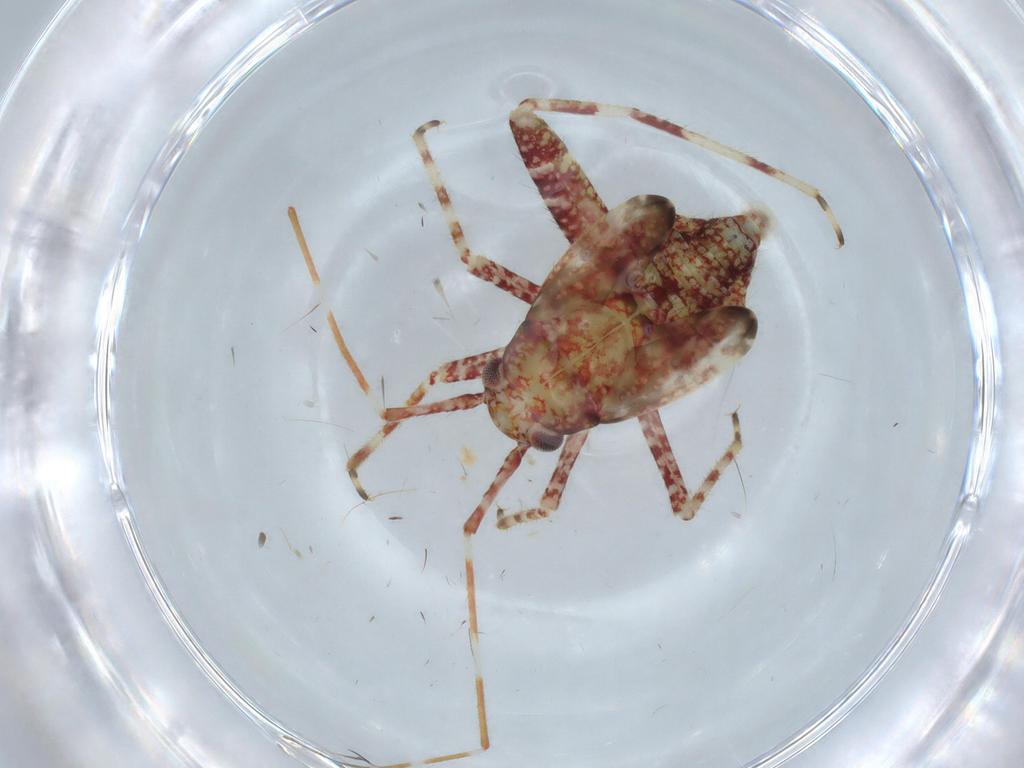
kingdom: Animalia
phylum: Arthropoda
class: Insecta
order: Hemiptera
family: Miridae
